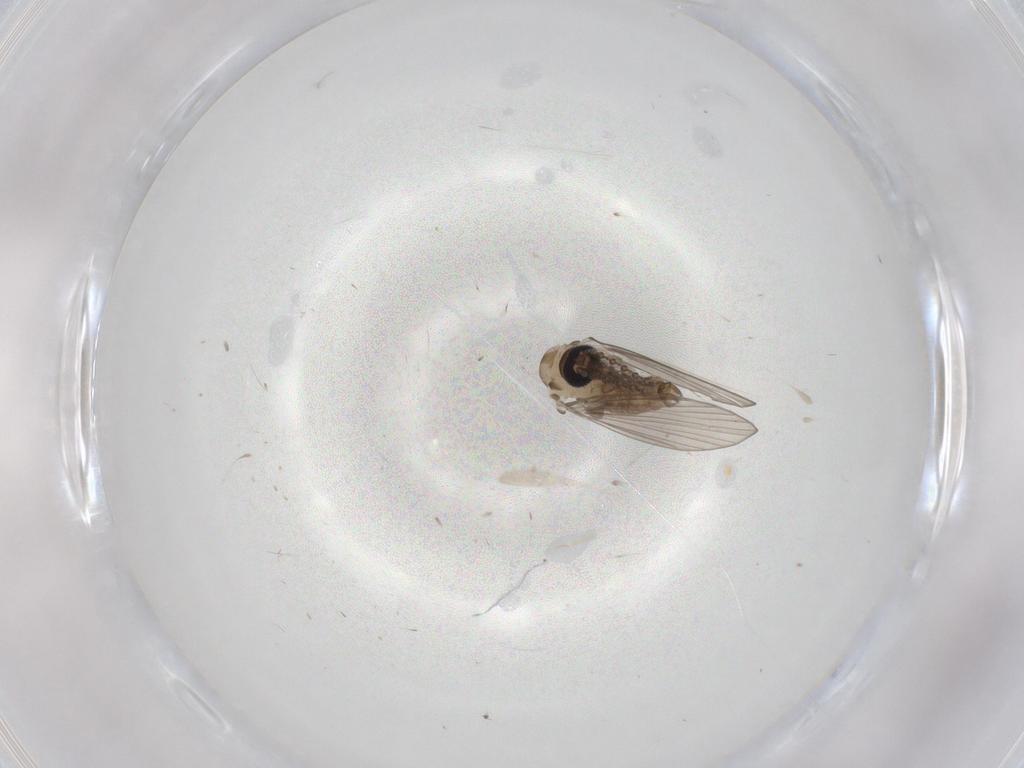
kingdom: Animalia
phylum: Arthropoda
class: Insecta
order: Diptera
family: Psychodidae
